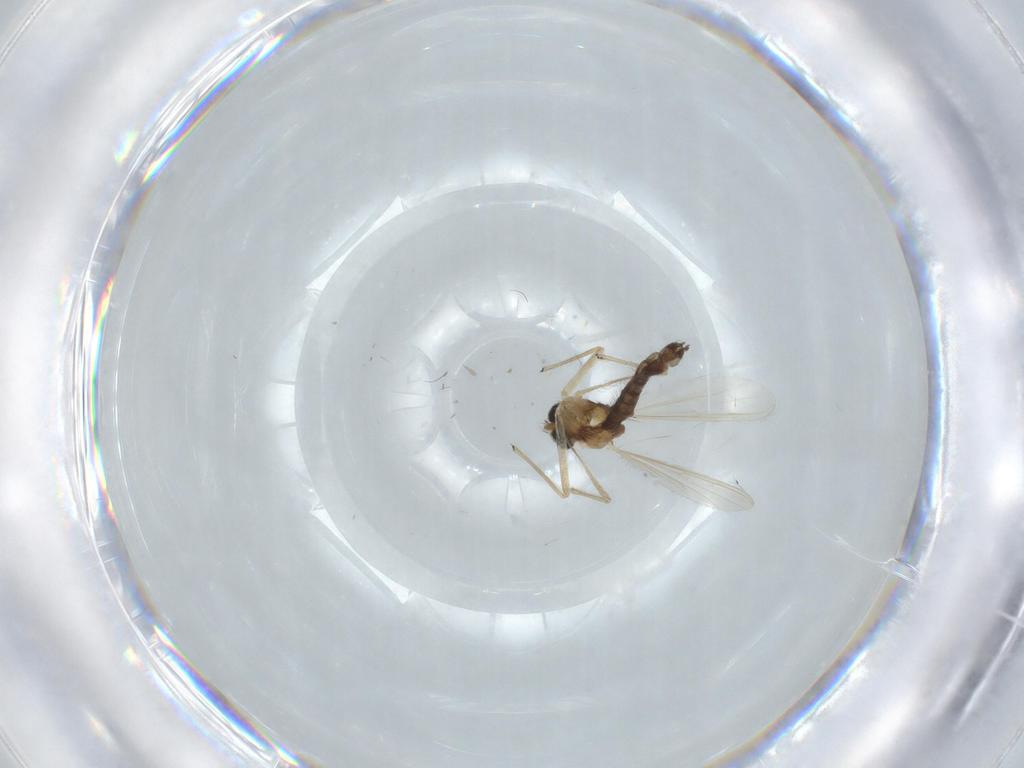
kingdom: Animalia
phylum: Arthropoda
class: Insecta
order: Diptera
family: Chironomidae
